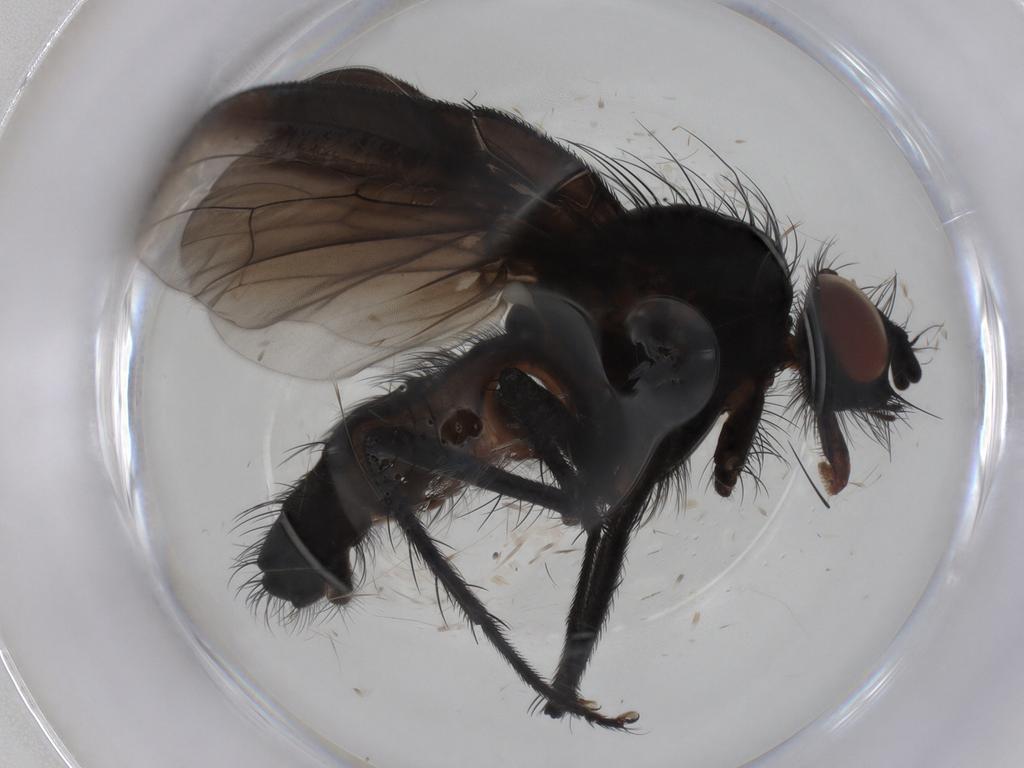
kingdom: Animalia
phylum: Arthropoda
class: Insecta
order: Diptera
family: Anthomyiidae
